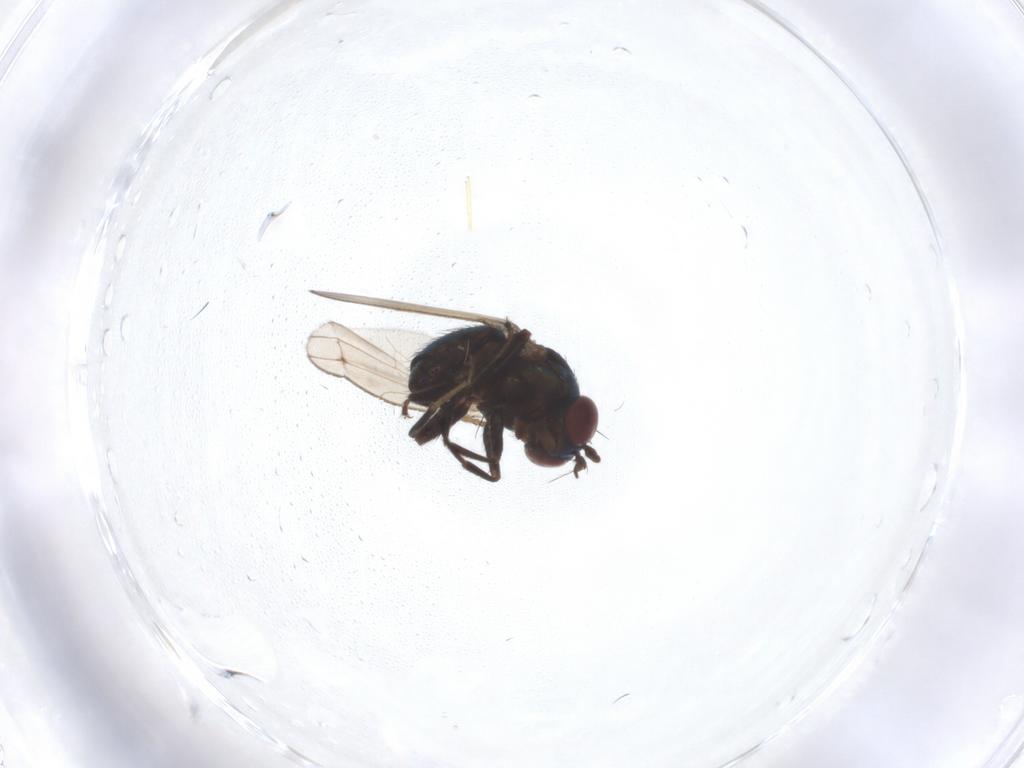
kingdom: Animalia
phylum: Arthropoda
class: Insecta
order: Diptera
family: Ephydridae
